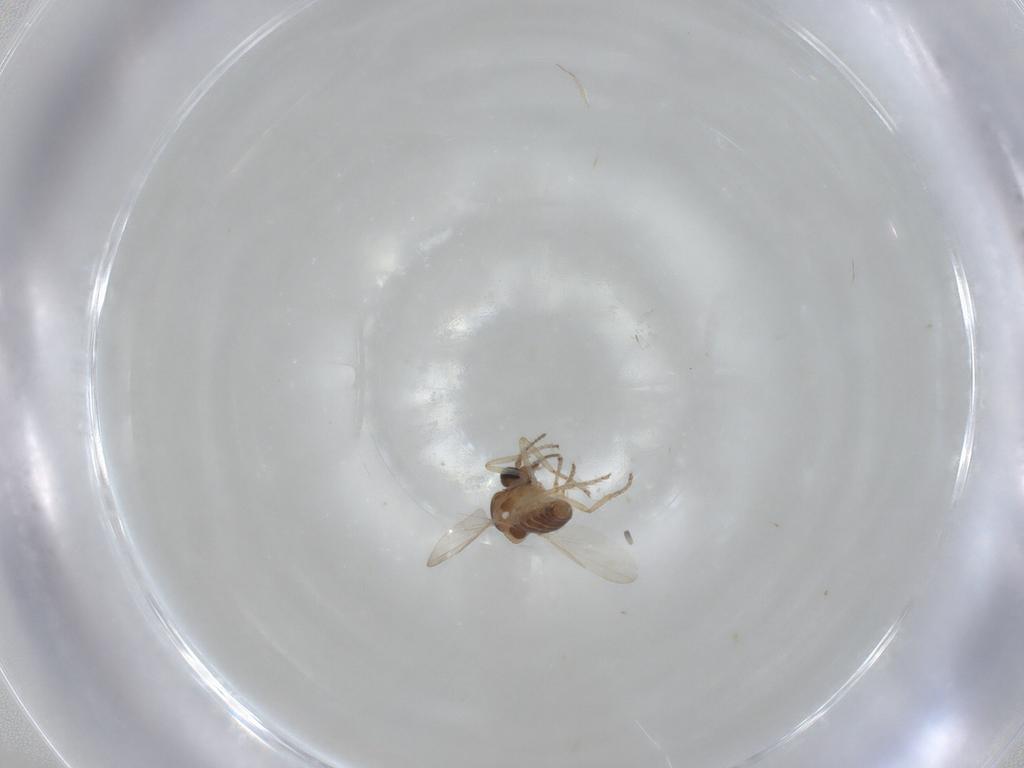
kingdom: Animalia
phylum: Arthropoda
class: Insecta
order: Diptera
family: Ceratopogonidae
